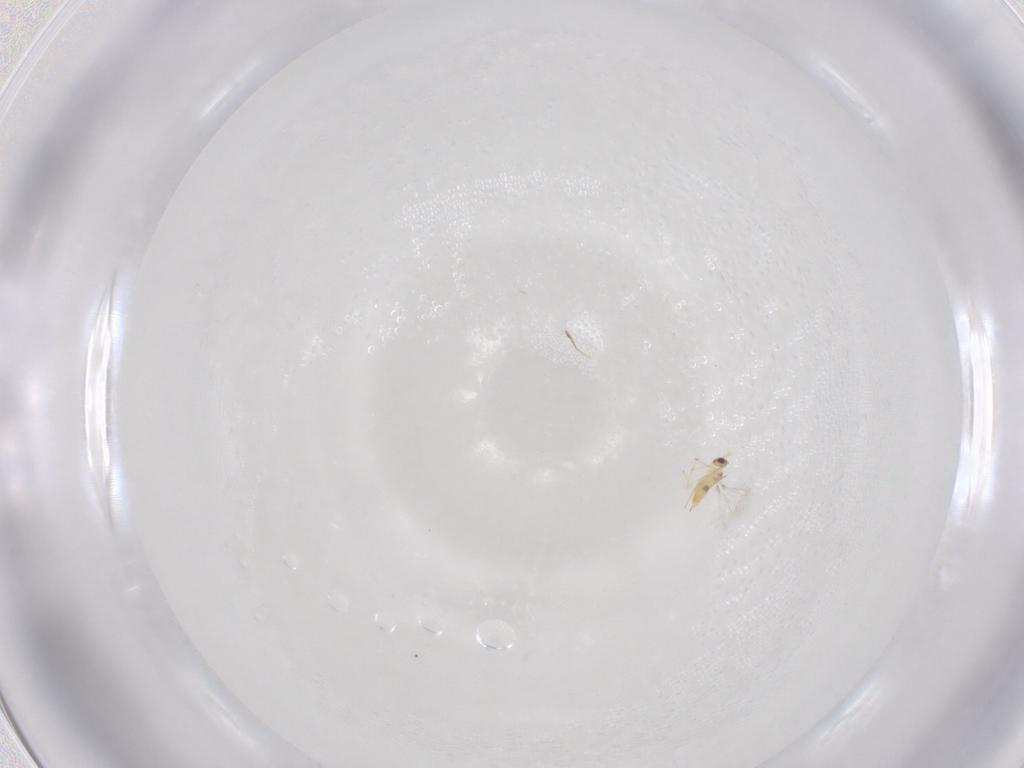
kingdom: Animalia
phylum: Arthropoda
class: Insecta
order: Hymenoptera
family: Mymaridae
